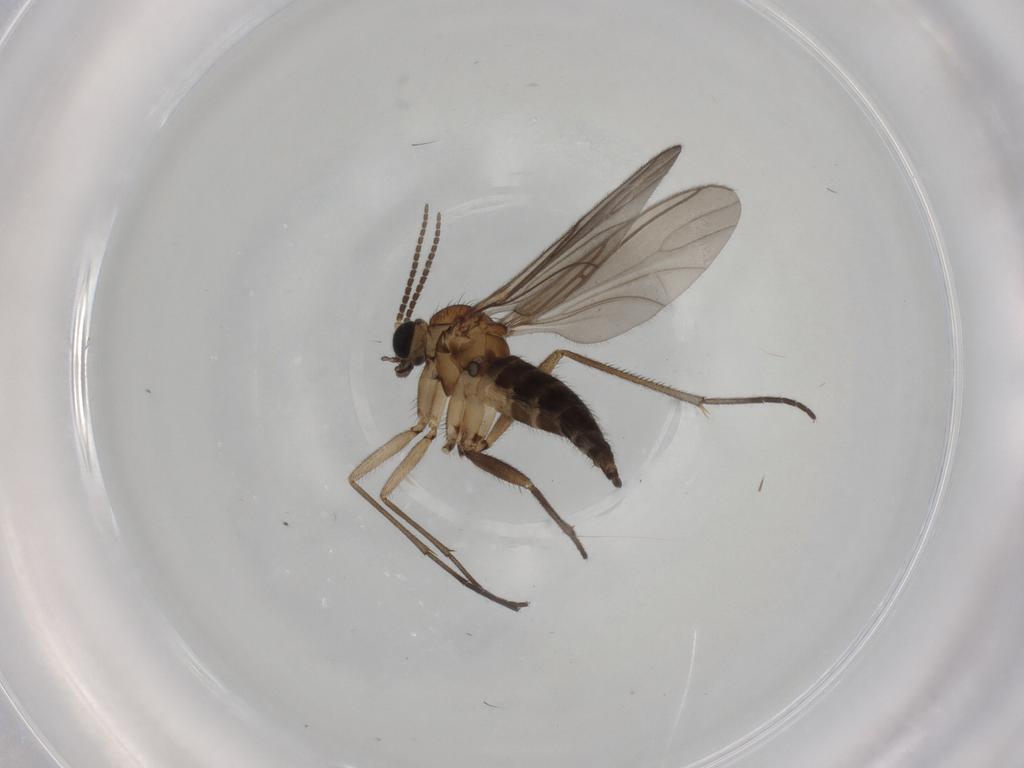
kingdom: Animalia
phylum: Arthropoda
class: Insecta
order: Diptera
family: Sciaridae
